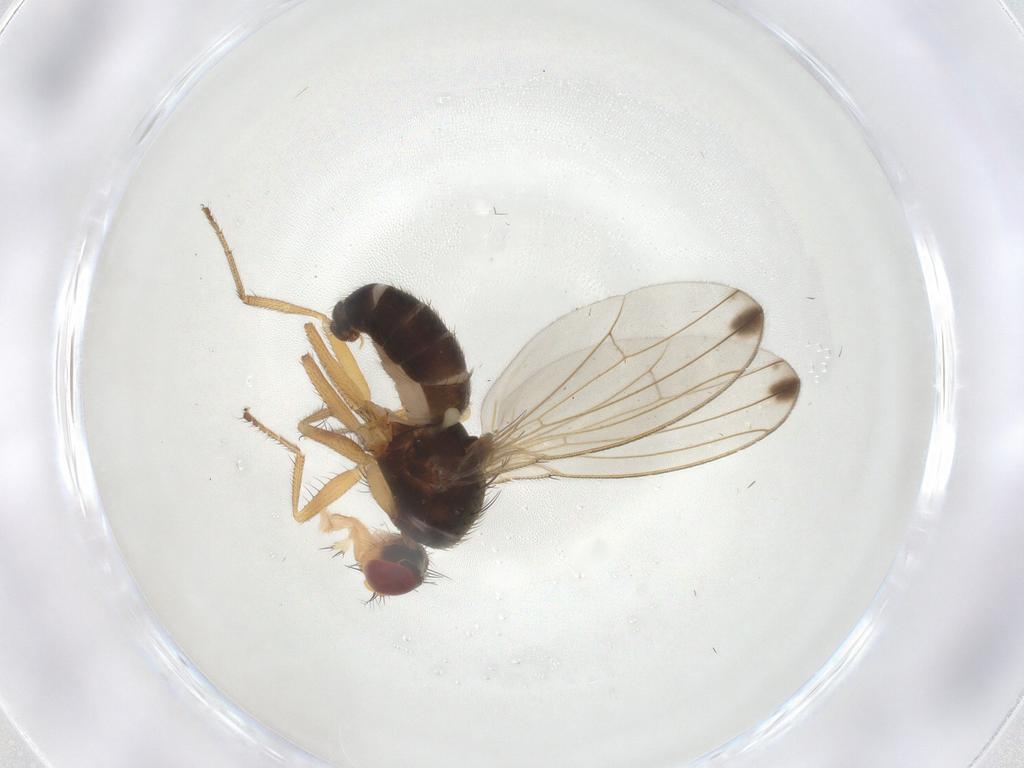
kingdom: Animalia
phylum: Arthropoda
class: Insecta
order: Diptera
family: Drosophilidae
